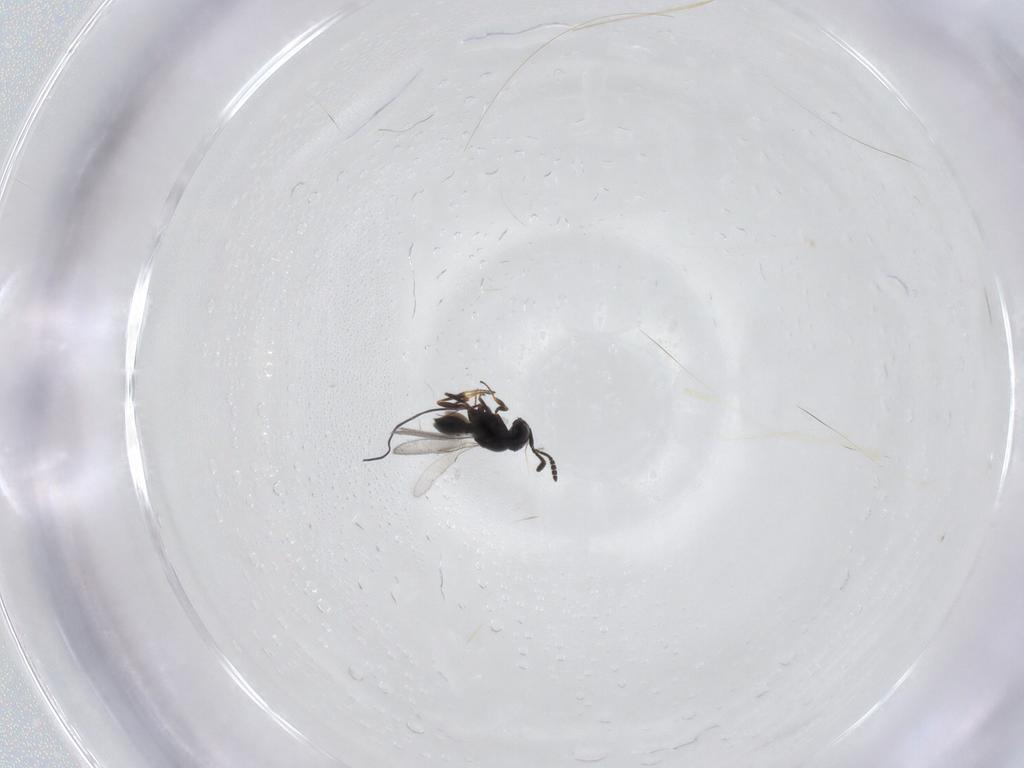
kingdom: Animalia
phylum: Arthropoda
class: Insecta
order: Hymenoptera
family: Scelionidae
